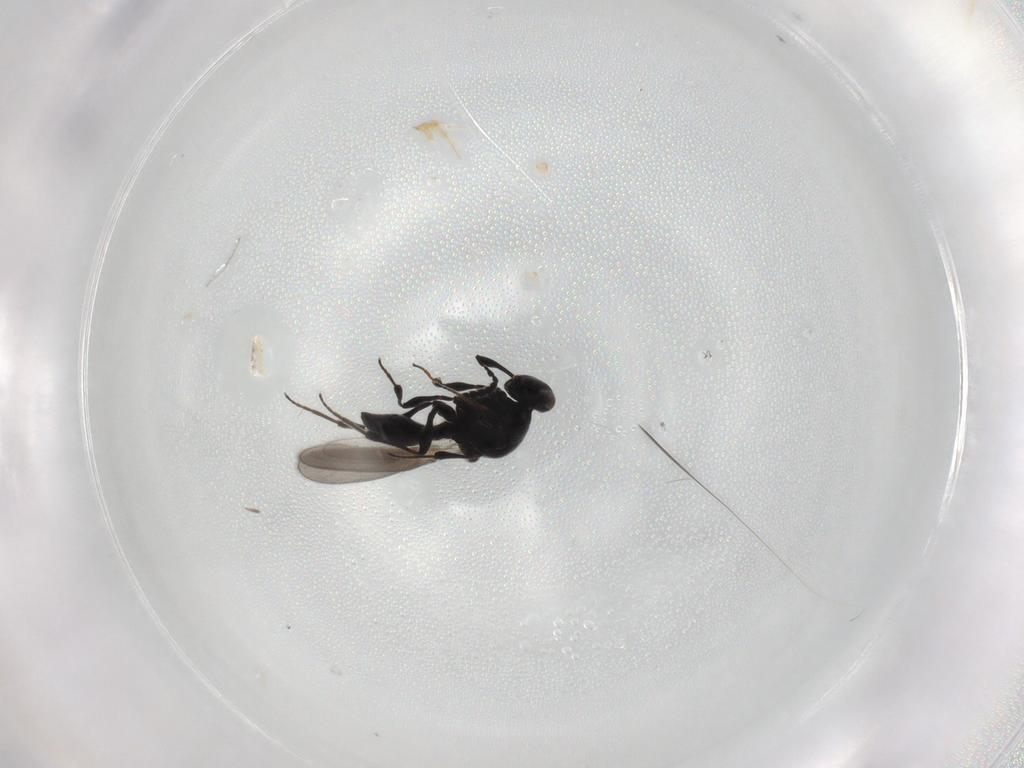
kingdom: Animalia
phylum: Arthropoda
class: Insecta
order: Hymenoptera
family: Platygastridae
